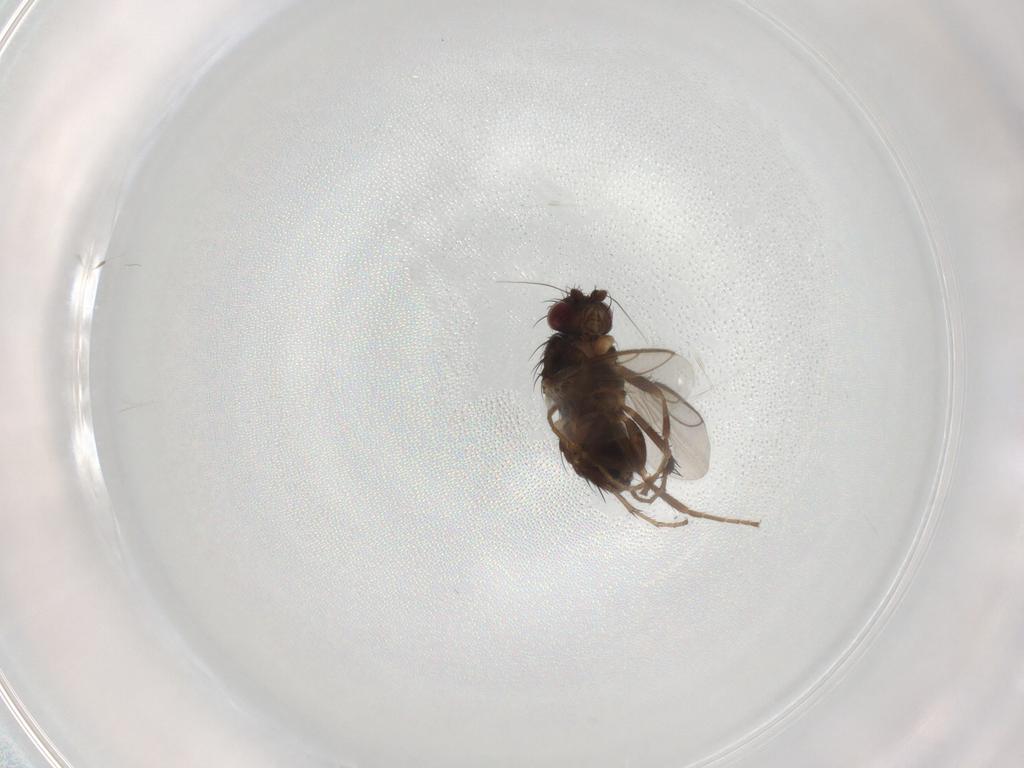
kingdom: Animalia
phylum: Arthropoda
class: Insecta
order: Diptera
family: Sphaeroceridae
